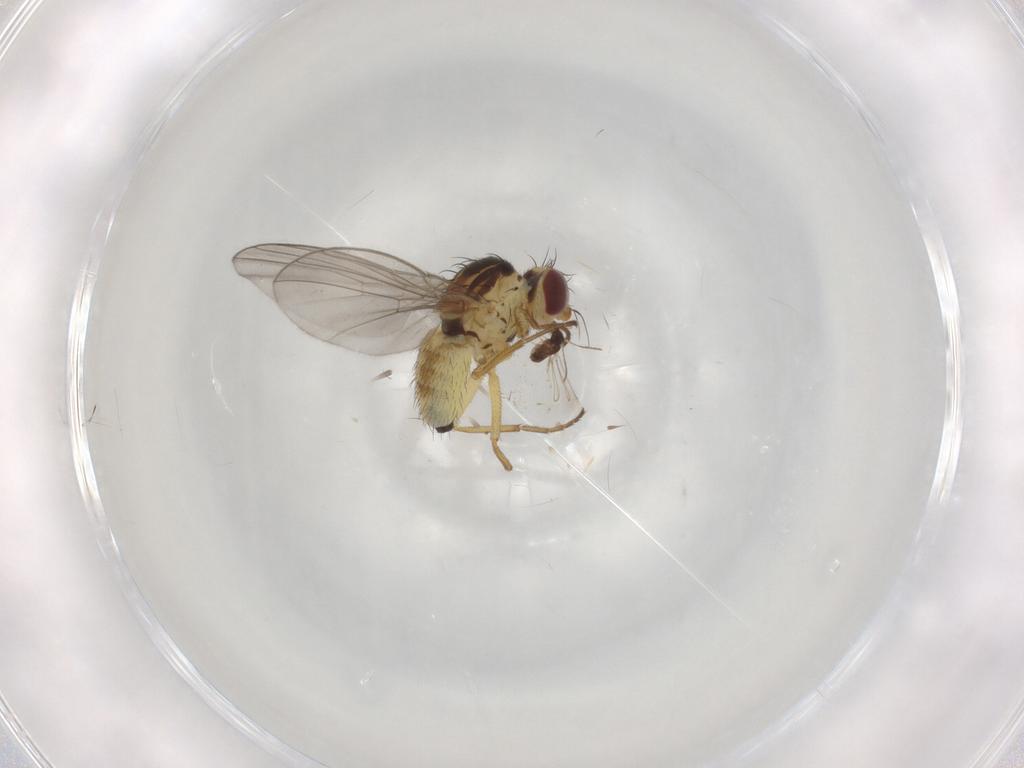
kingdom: Animalia
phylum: Arthropoda
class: Insecta
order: Diptera
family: Agromyzidae
